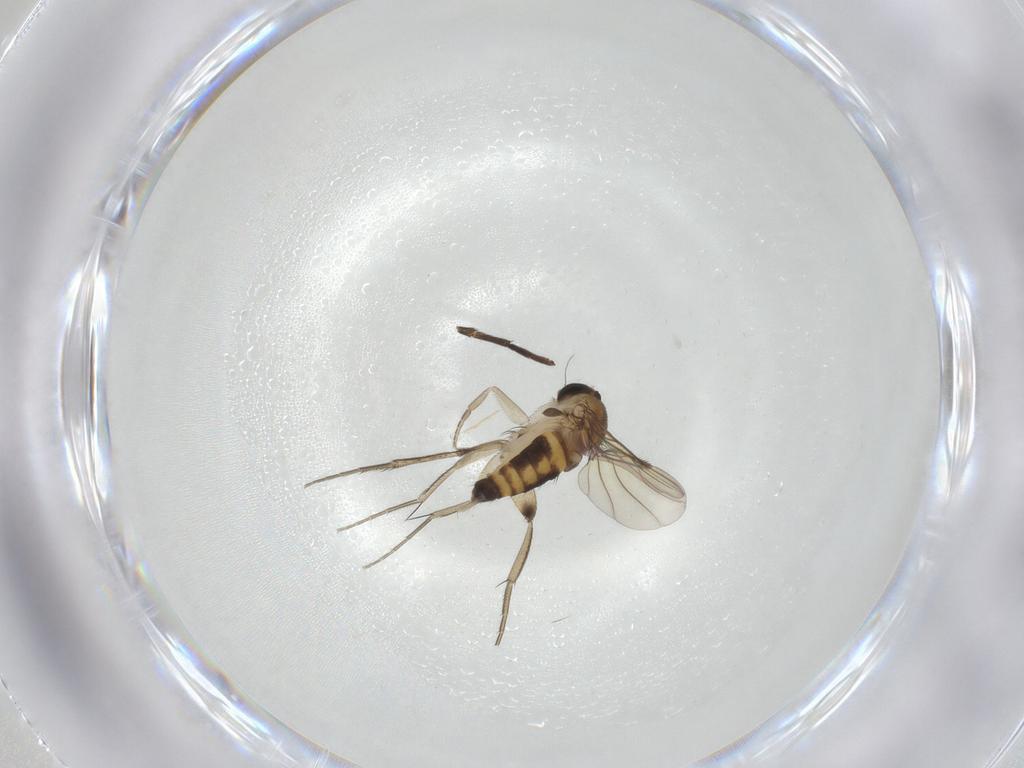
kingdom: Animalia
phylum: Arthropoda
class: Insecta
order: Diptera
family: Phoridae
